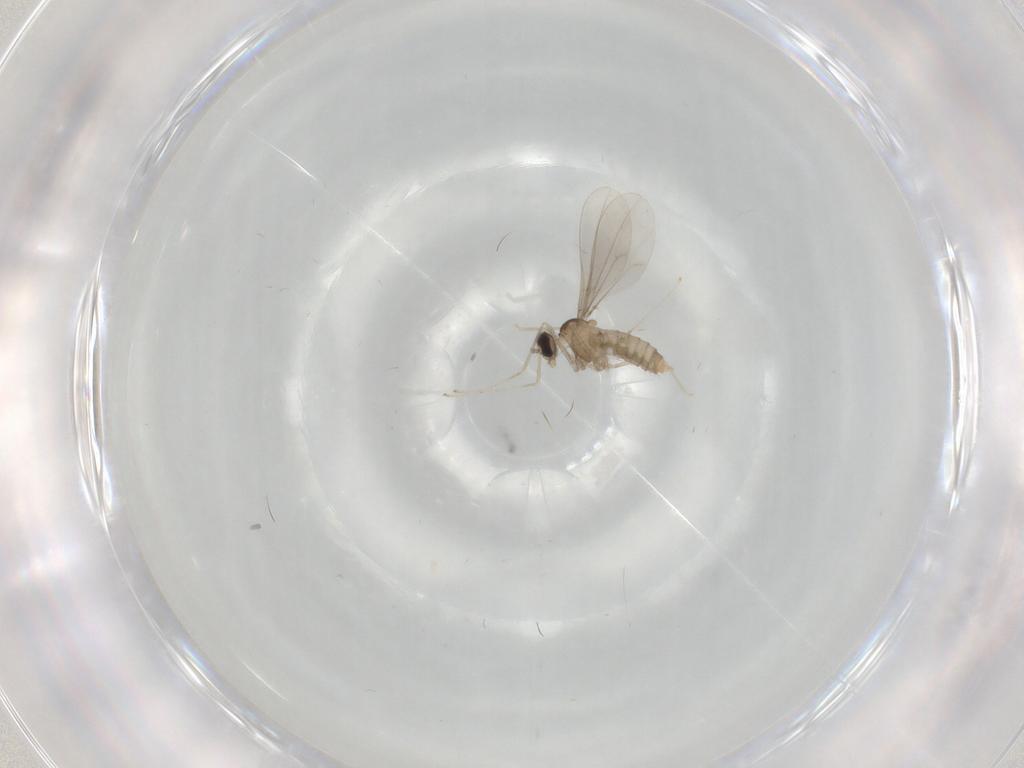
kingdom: Animalia
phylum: Arthropoda
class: Insecta
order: Diptera
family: Cecidomyiidae
